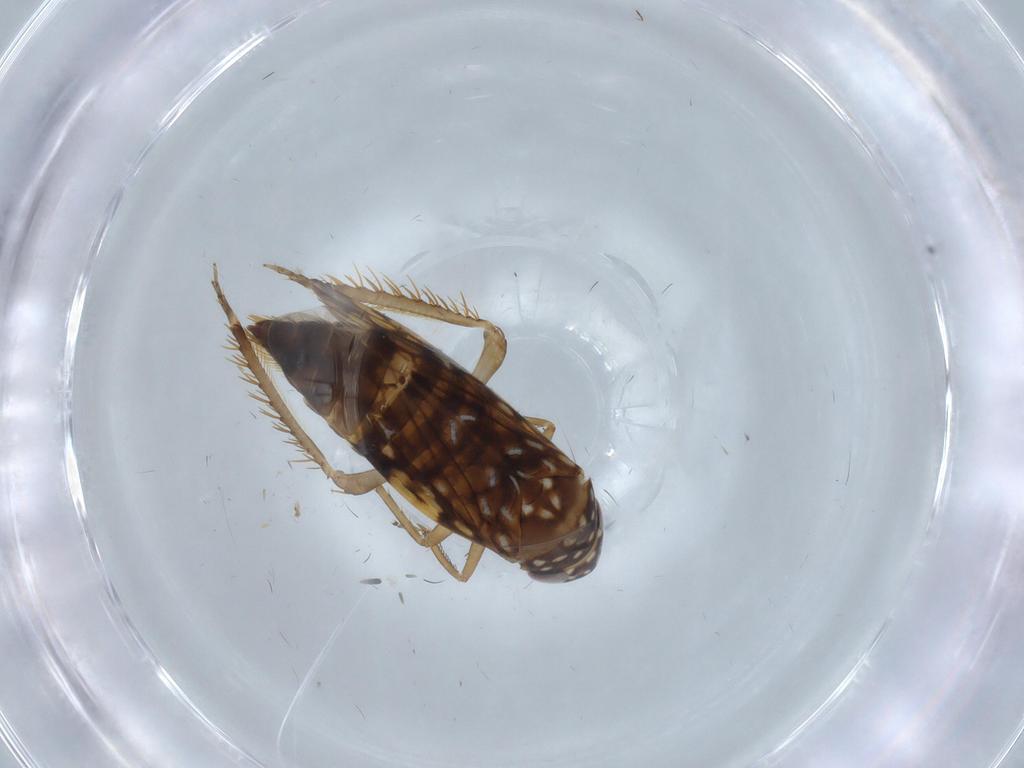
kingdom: Animalia
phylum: Arthropoda
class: Insecta
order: Hemiptera
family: Cicadellidae
